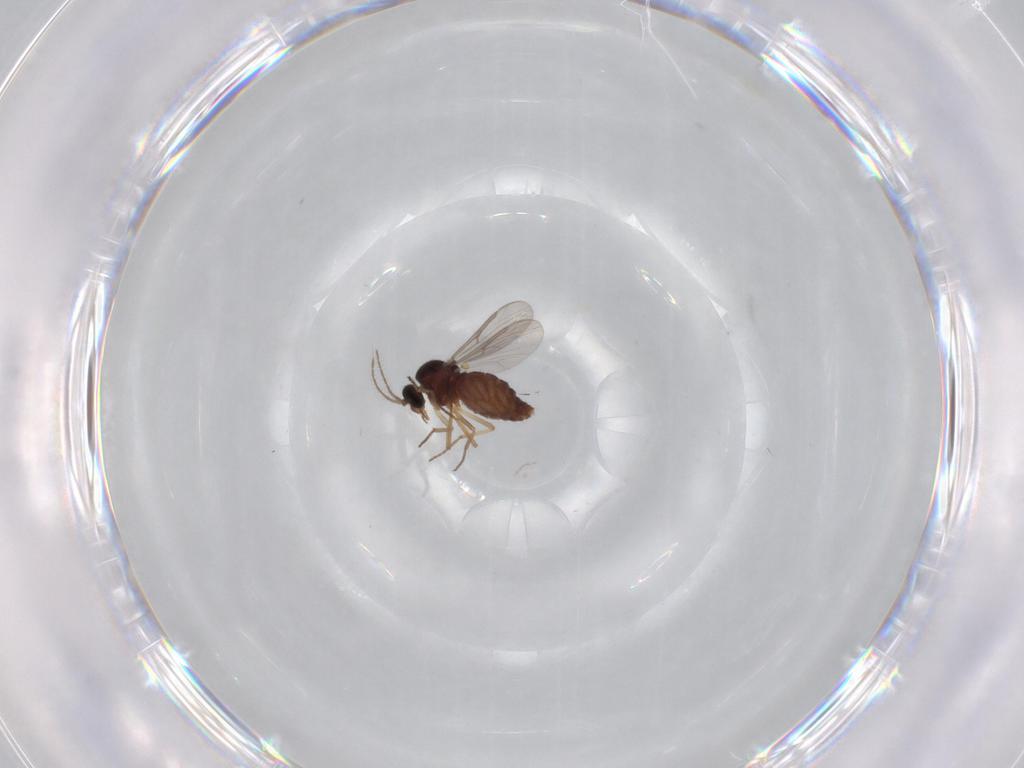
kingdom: Animalia
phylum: Arthropoda
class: Insecta
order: Diptera
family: Ceratopogonidae
